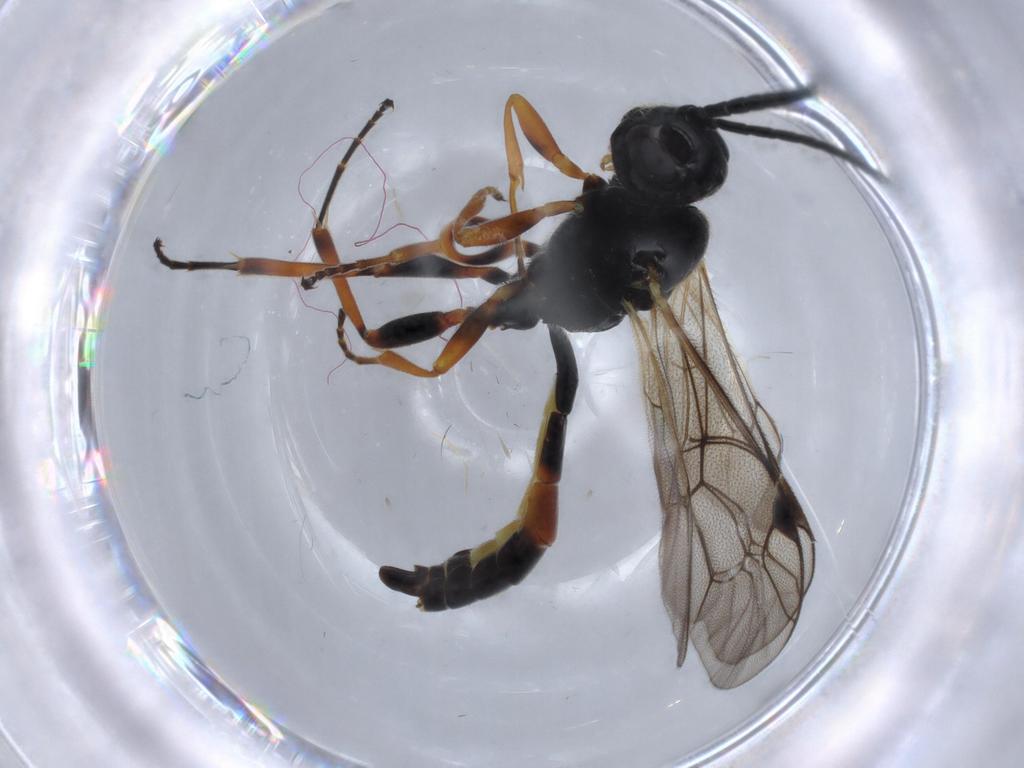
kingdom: Animalia
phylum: Arthropoda
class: Insecta
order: Hymenoptera
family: Ichneumonidae
